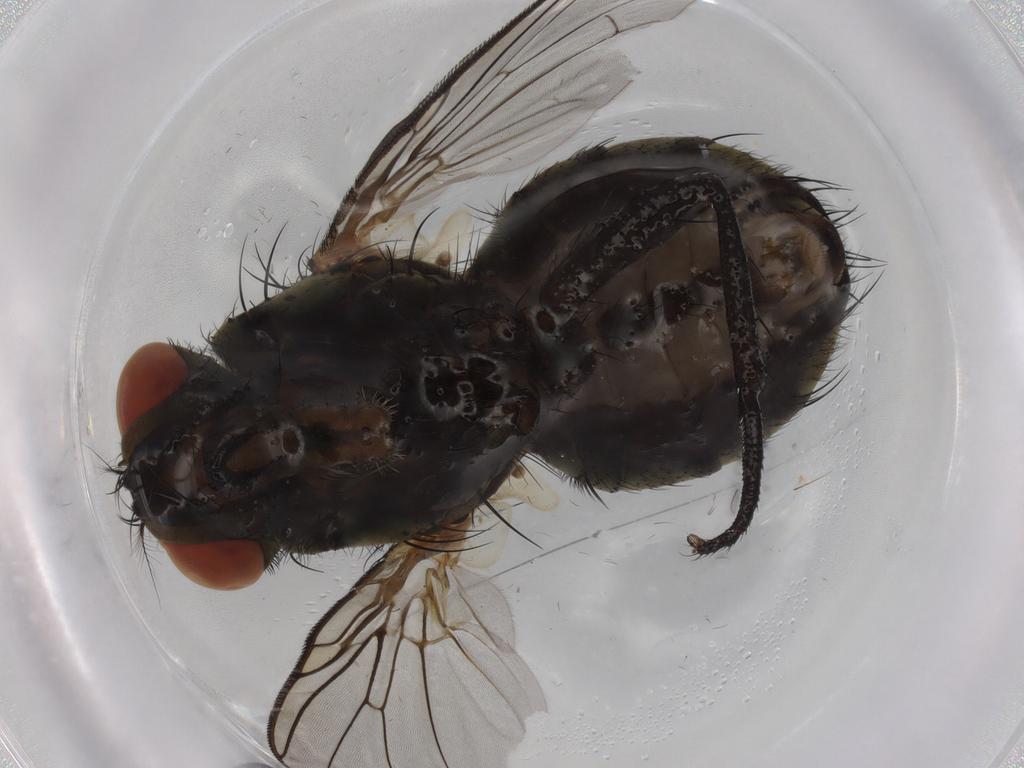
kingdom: Animalia
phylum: Arthropoda
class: Insecta
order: Diptera
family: Sarcophagidae
